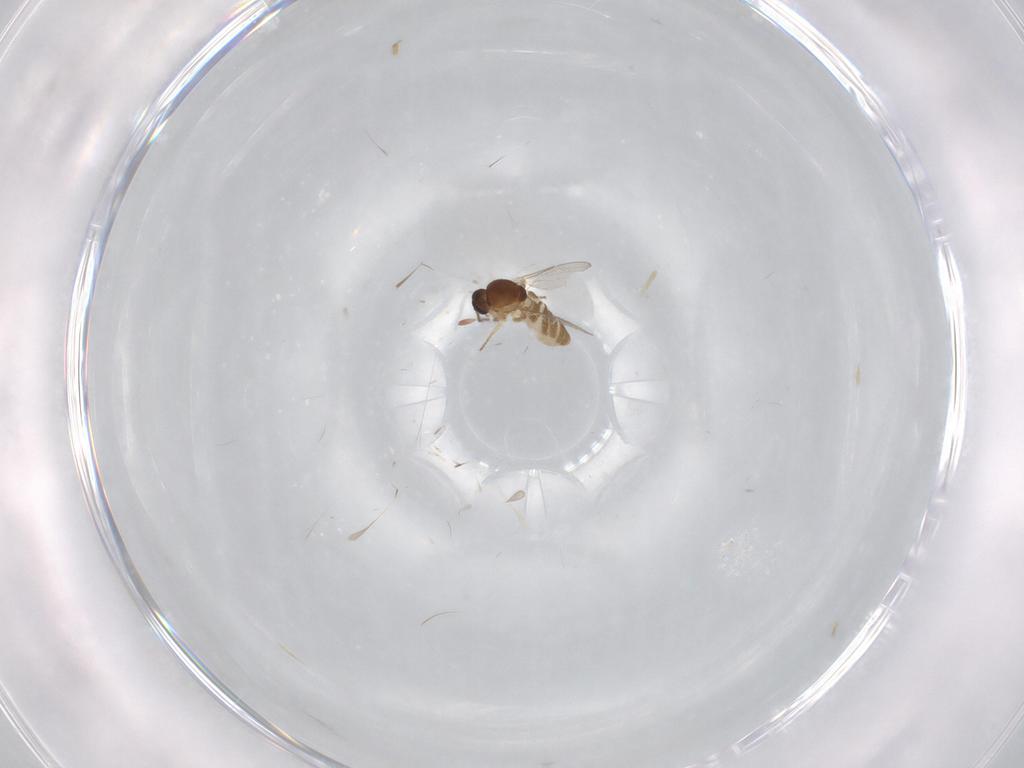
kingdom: Animalia
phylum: Arthropoda
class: Insecta
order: Diptera
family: Ceratopogonidae
